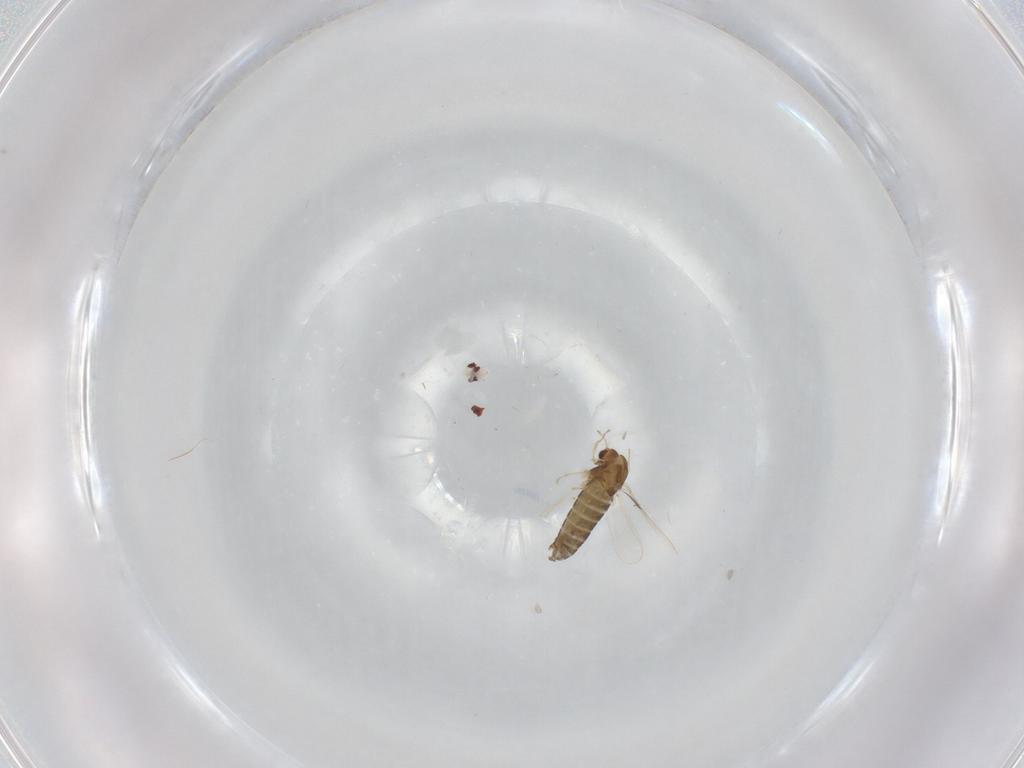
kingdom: Animalia
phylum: Arthropoda
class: Insecta
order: Diptera
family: Chironomidae
